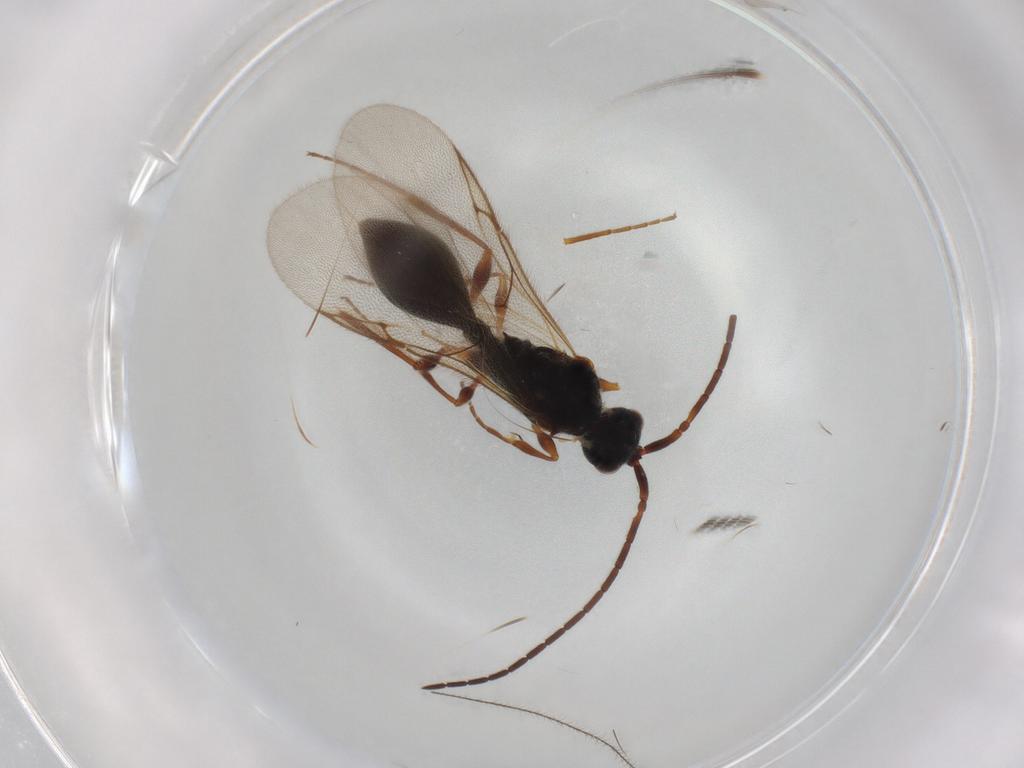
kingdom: Animalia
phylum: Arthropoda
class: Insecta
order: Hymenoptera
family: Diapriidae
